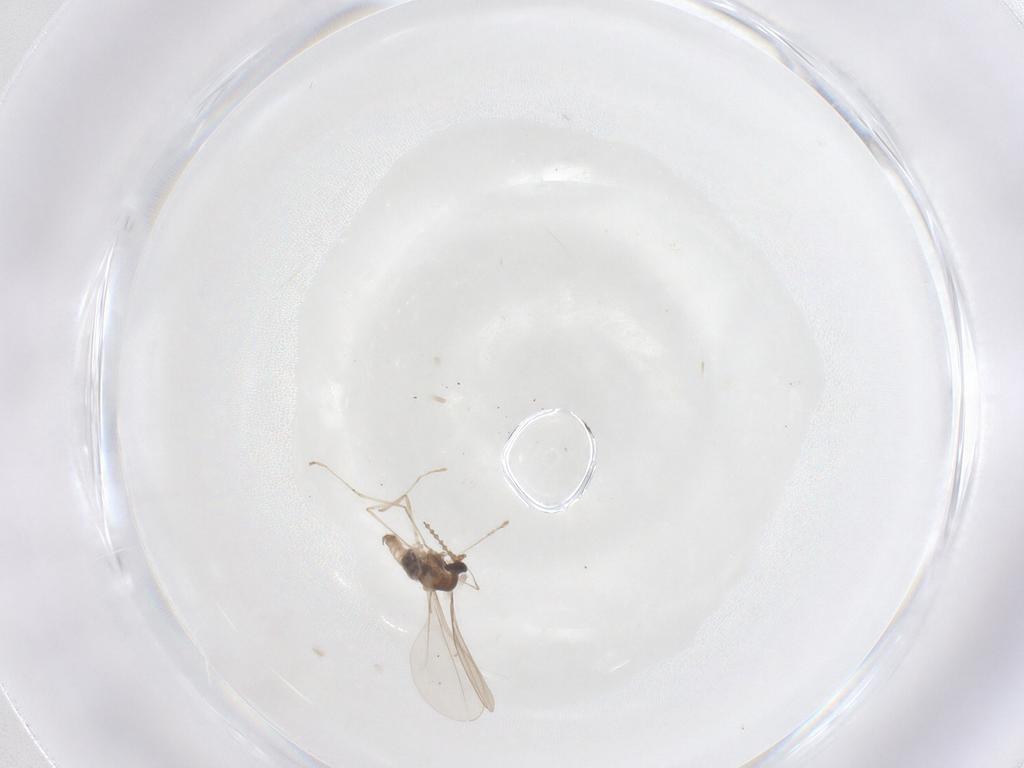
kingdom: Animalia
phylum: Arthropoda
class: Insecta
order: Diptera
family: Cecidomyiidae
